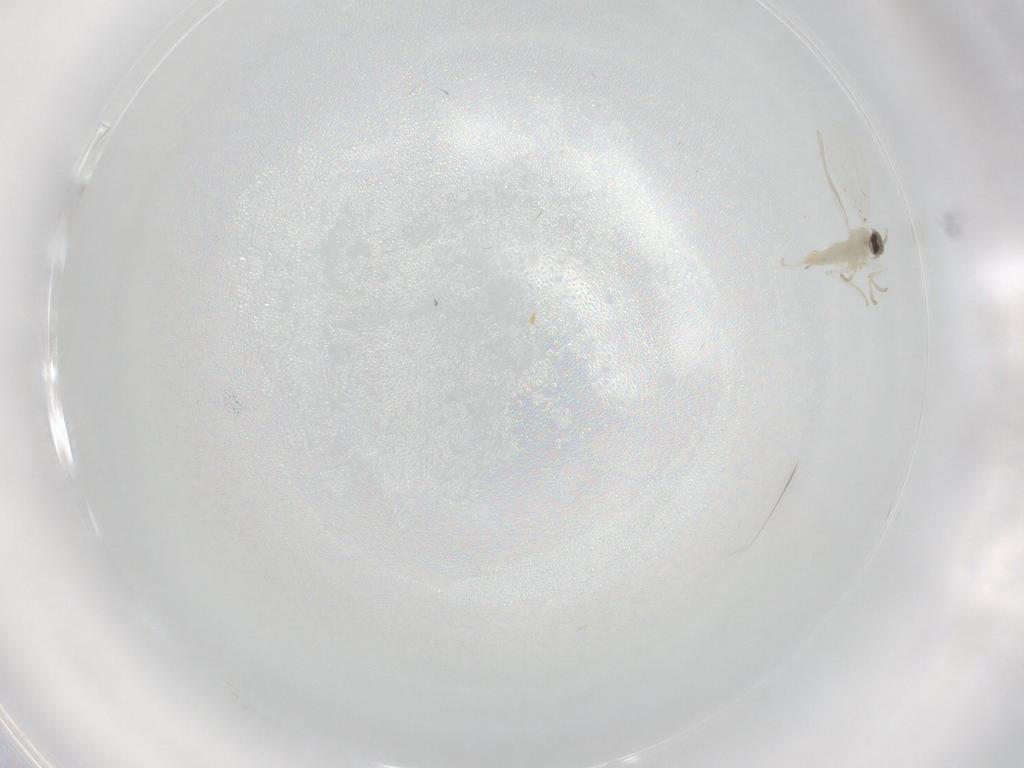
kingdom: Animalia
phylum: Arthropoda
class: Insecta
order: Diptera
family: Cecidomyiidae
